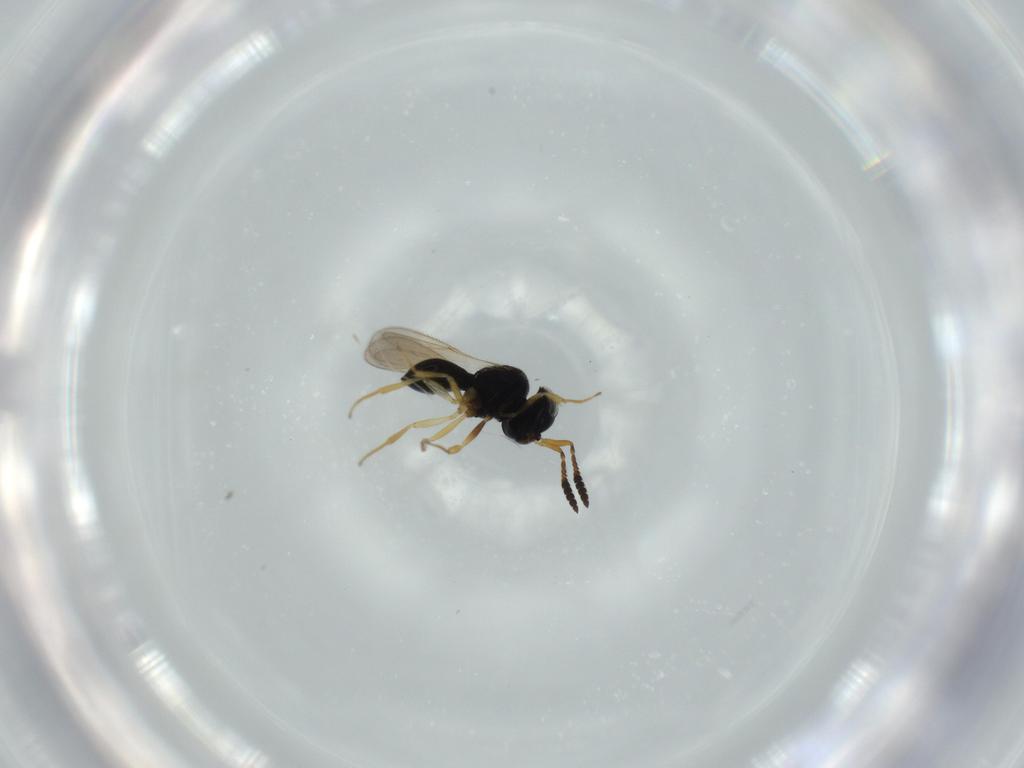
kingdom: Animalia
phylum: Arthropoda
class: Insecta
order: Hymenoptera
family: Scelionidae
